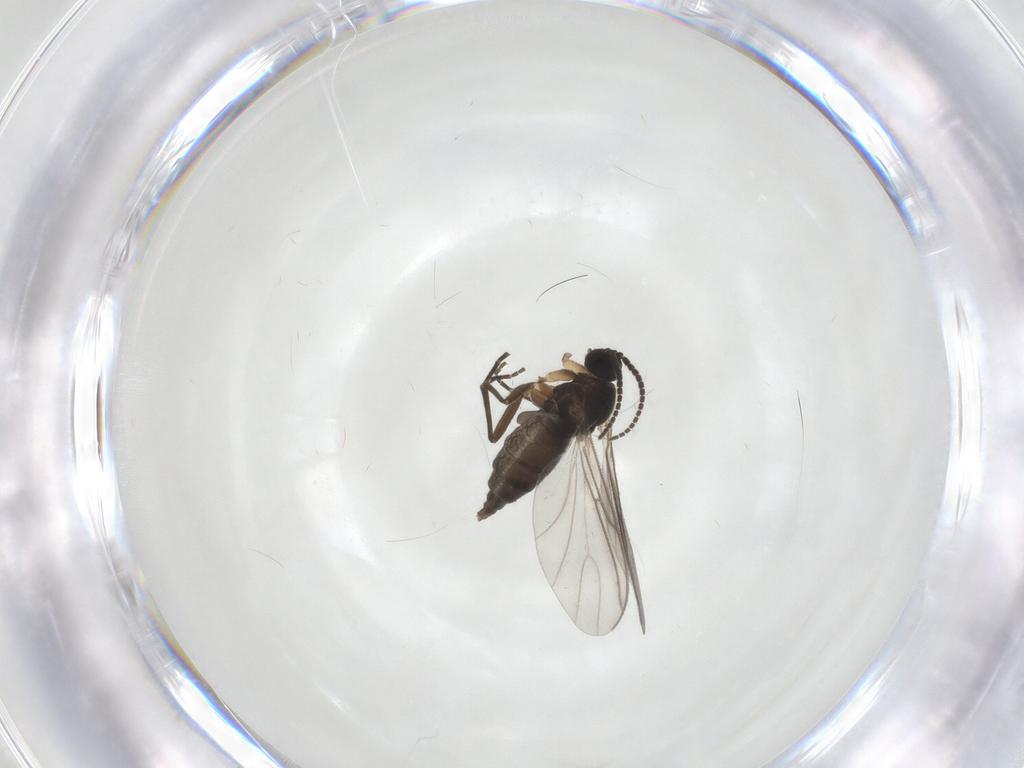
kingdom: Animalia
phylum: Arthropoda
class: Insecta
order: Diptera
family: Sciaridae
